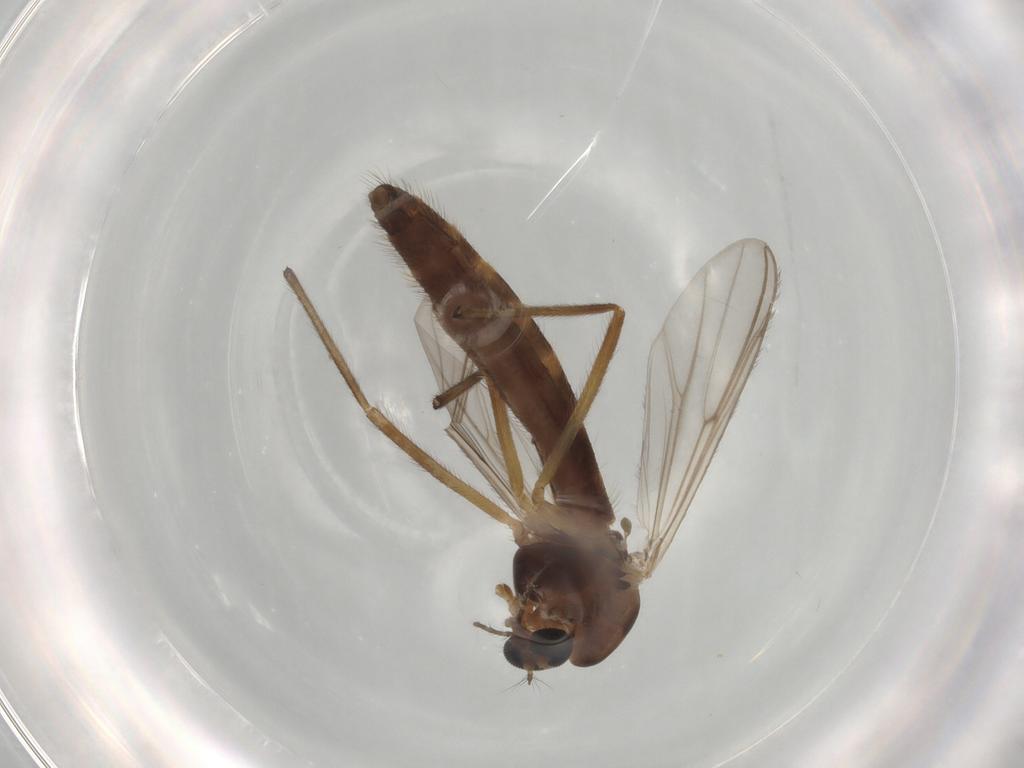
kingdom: Animalia
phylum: Arthropoda
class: Insecta
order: Diptera
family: Chironomidae
